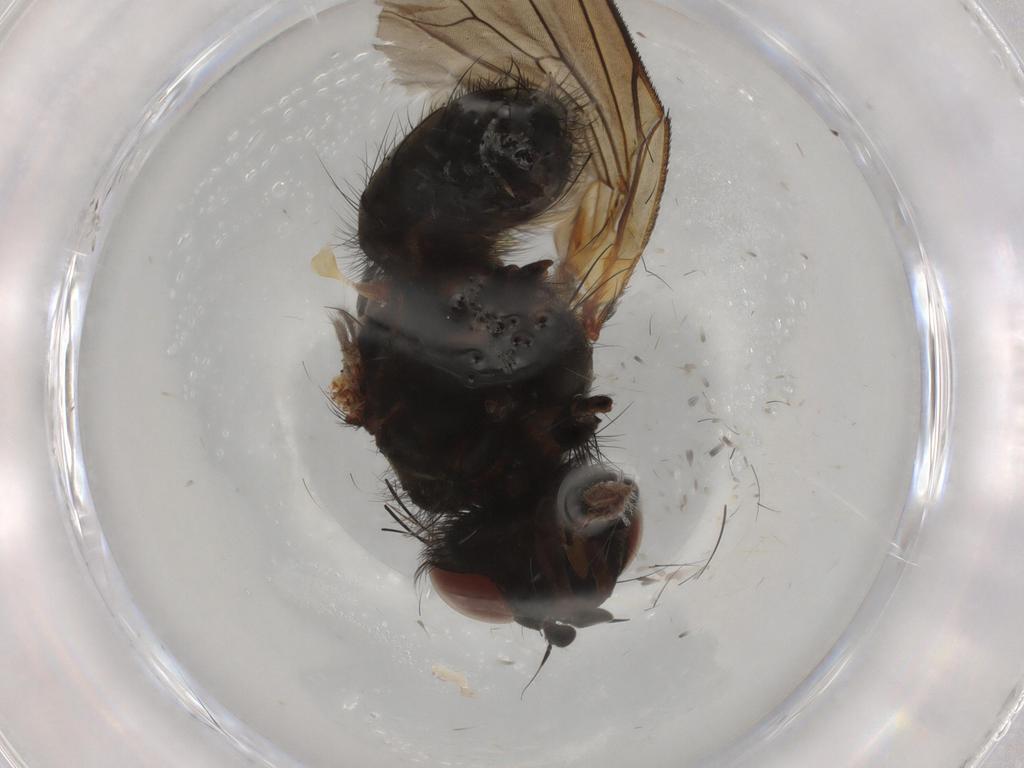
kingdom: Animalia
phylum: Arthropoda
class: Insecta
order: Diptera
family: Anthomyiidae
